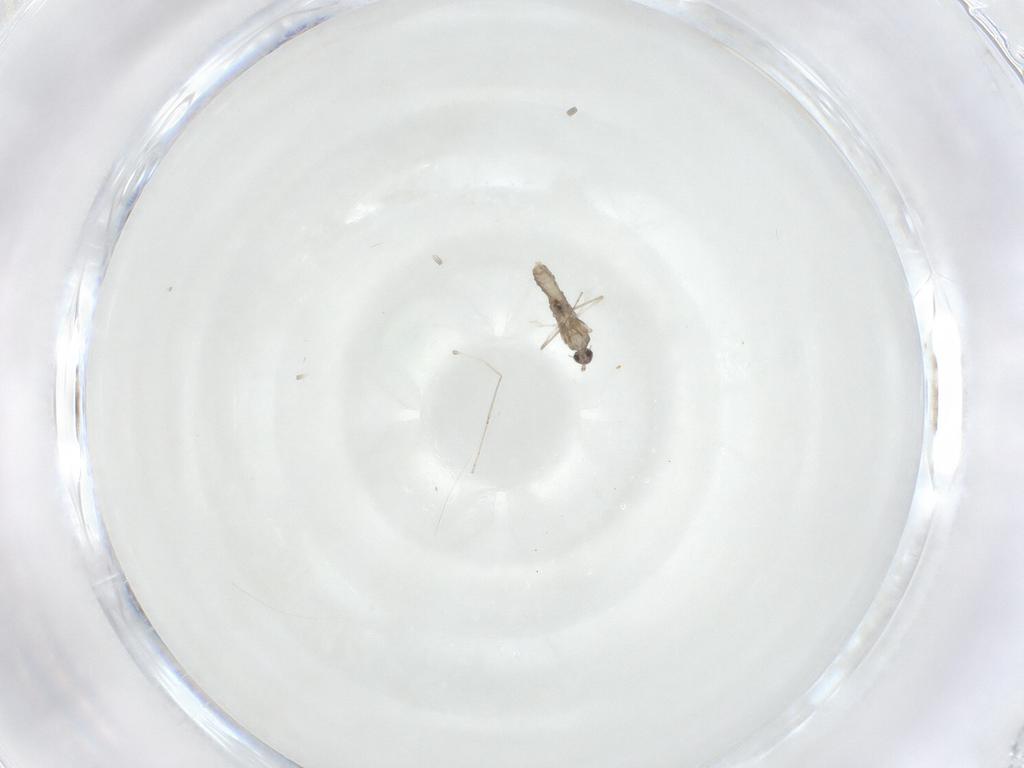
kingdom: Animalia
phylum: Arthropoda
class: Insecta
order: Diptera
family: Cecidomyiidae
